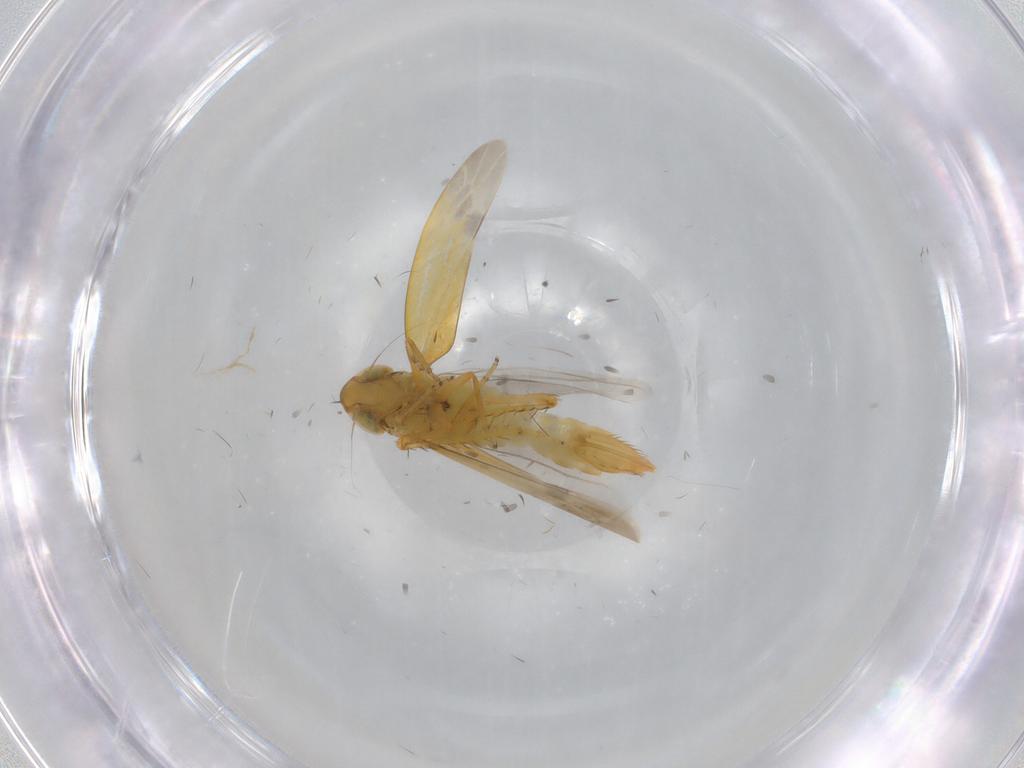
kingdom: Animalia
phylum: Arthropoda
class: Insecta
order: Hemiptera
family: Cicadellidae
